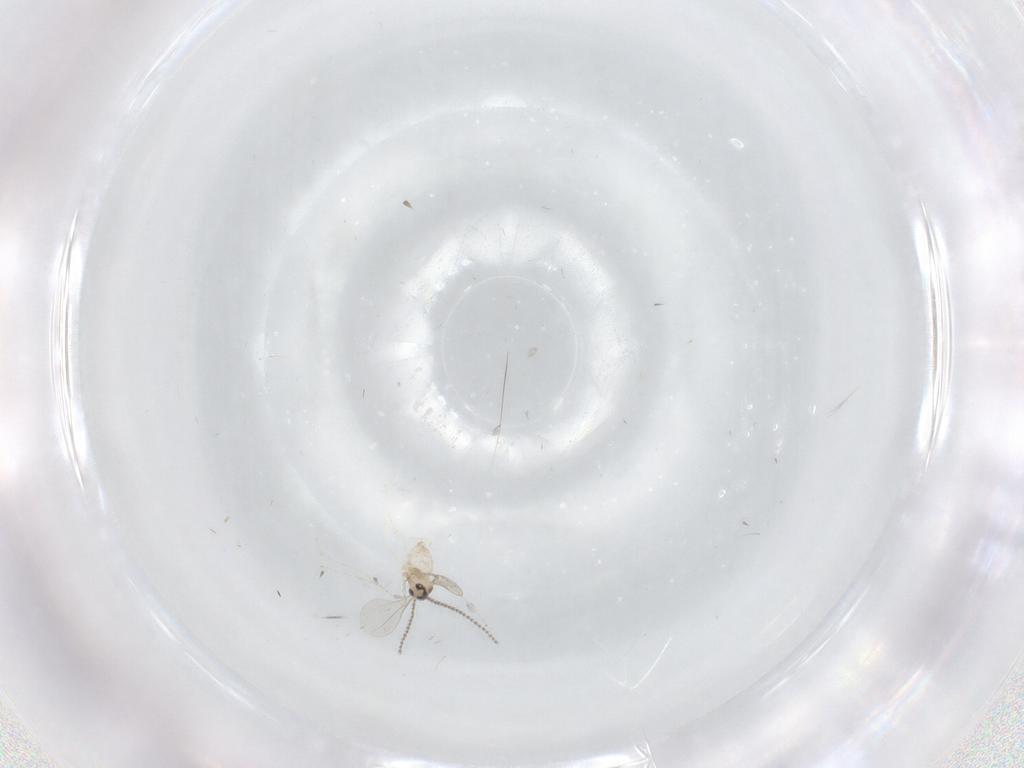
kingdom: Animalia
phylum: Arthropoda
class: Insecta
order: Diptera
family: Cecidomyiidae
